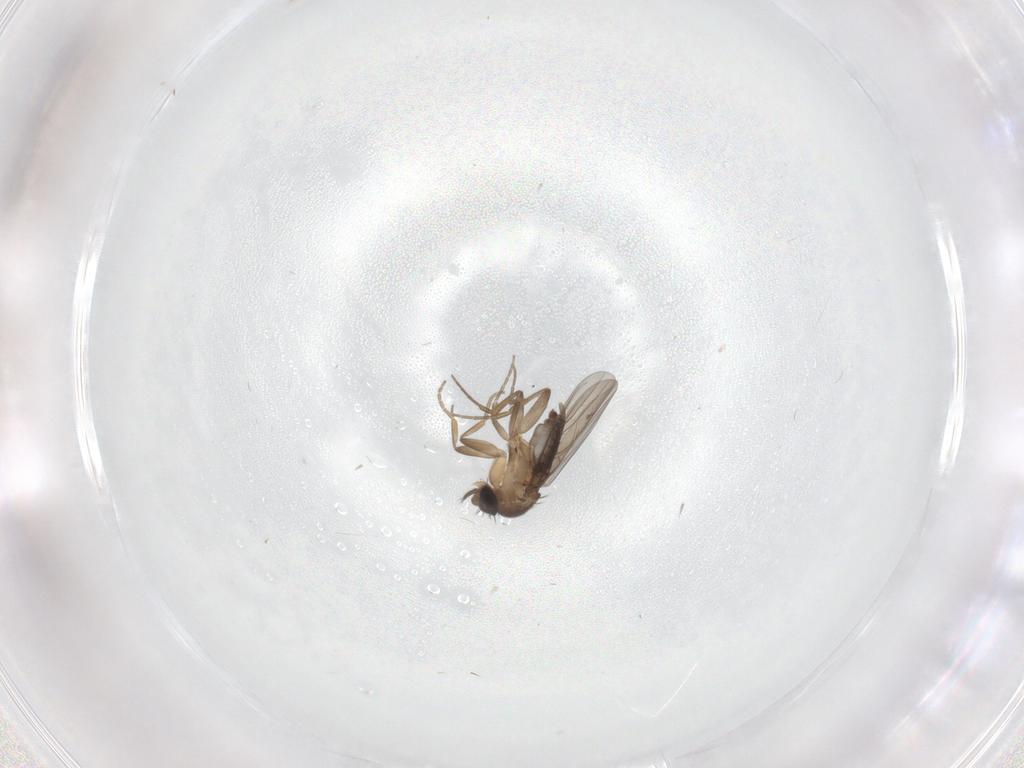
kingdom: Animalia
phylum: Arthropoda
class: Insecta
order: Diptera
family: Phoridae
